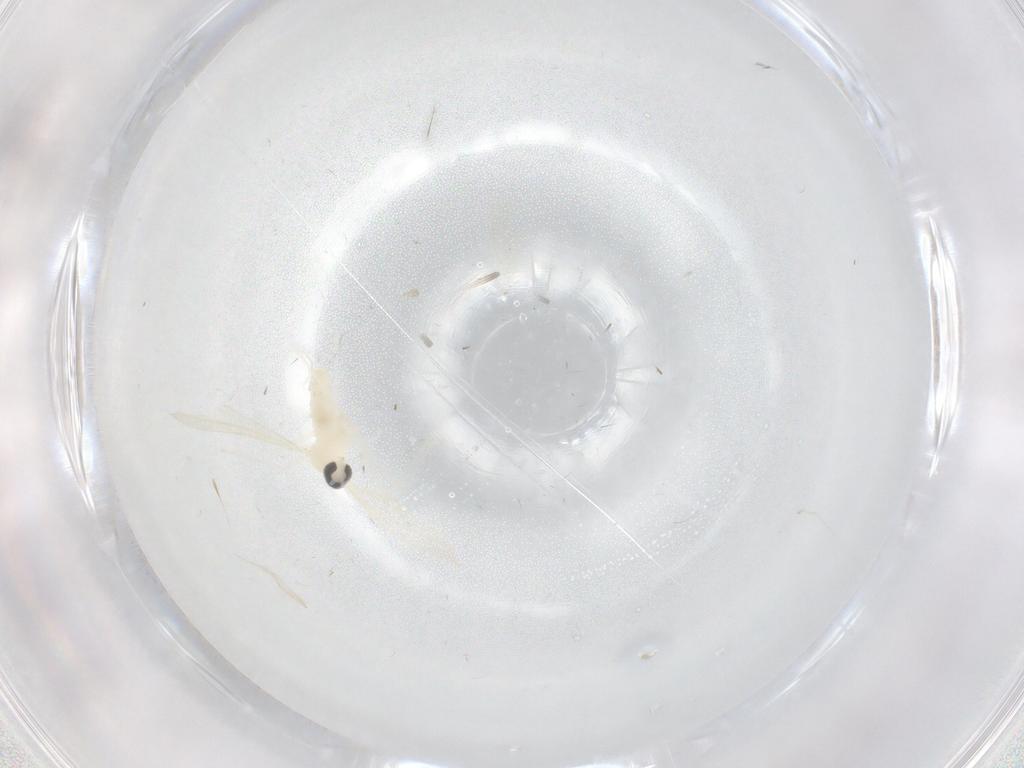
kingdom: Animalia
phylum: Arthropoda
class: Insecta
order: Diptera
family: Cecidomyiidae
